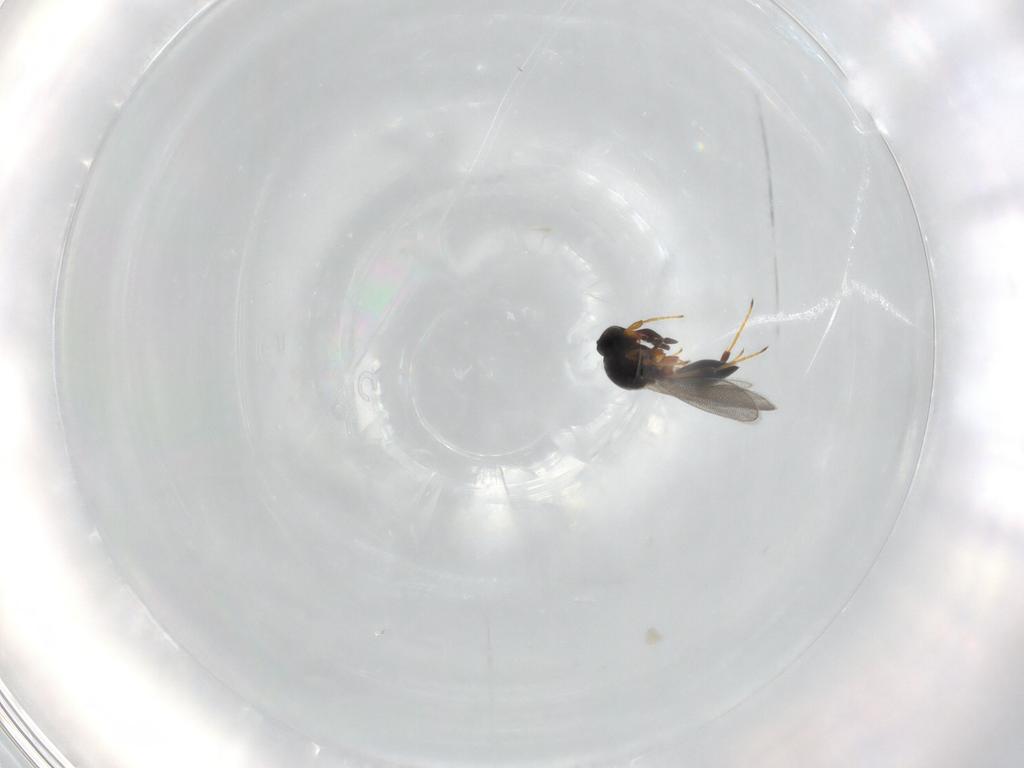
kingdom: Animalia
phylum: Arthropoda
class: Insecta
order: Hymenoptera
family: Platygastridae
